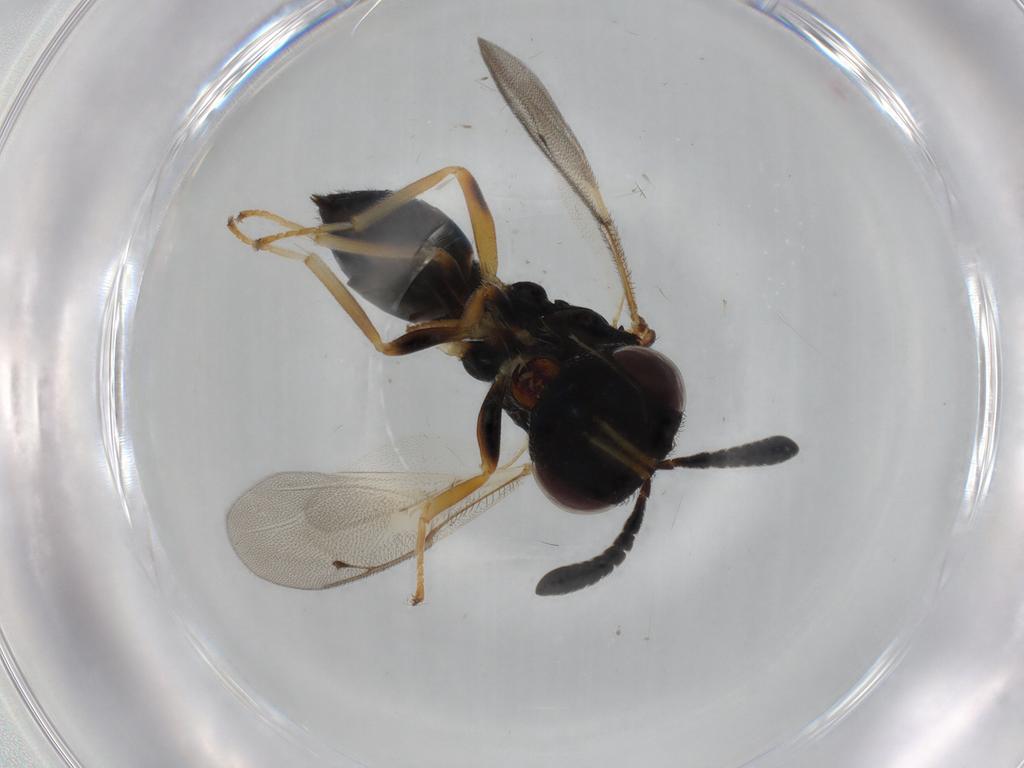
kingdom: Animalia
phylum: Arthropoda
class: Insecta
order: Hymenoptera
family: Pteromalidae
